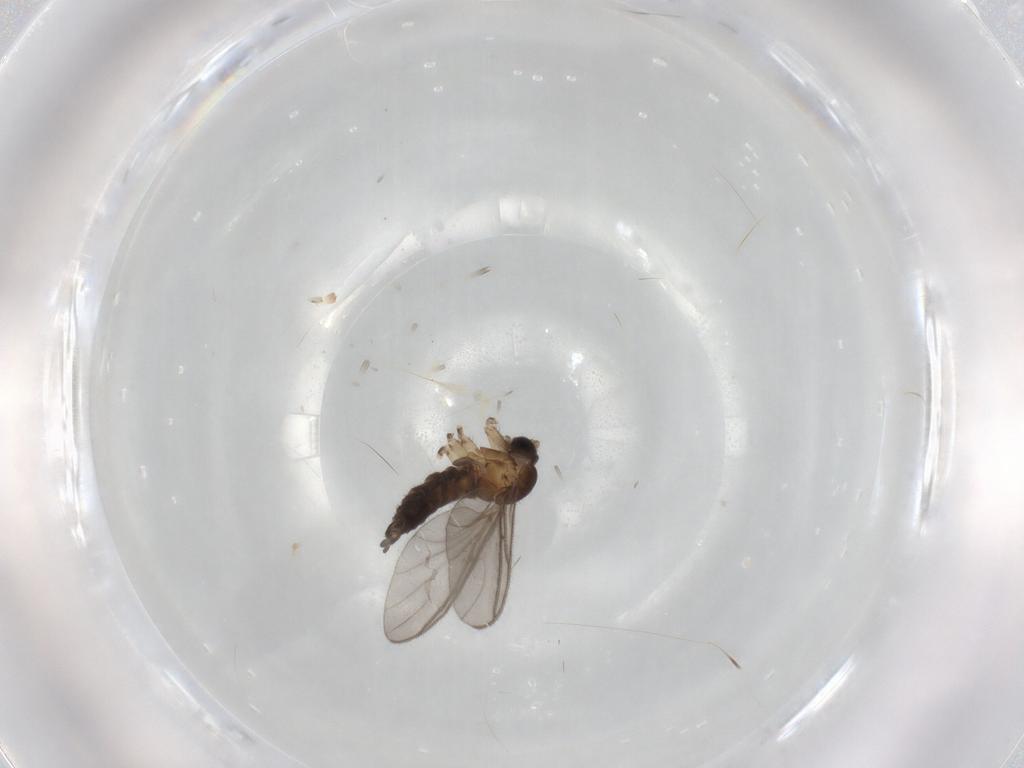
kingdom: Animalia
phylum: Arthropoda
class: Insecta
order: Diptera
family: Sciaridae
